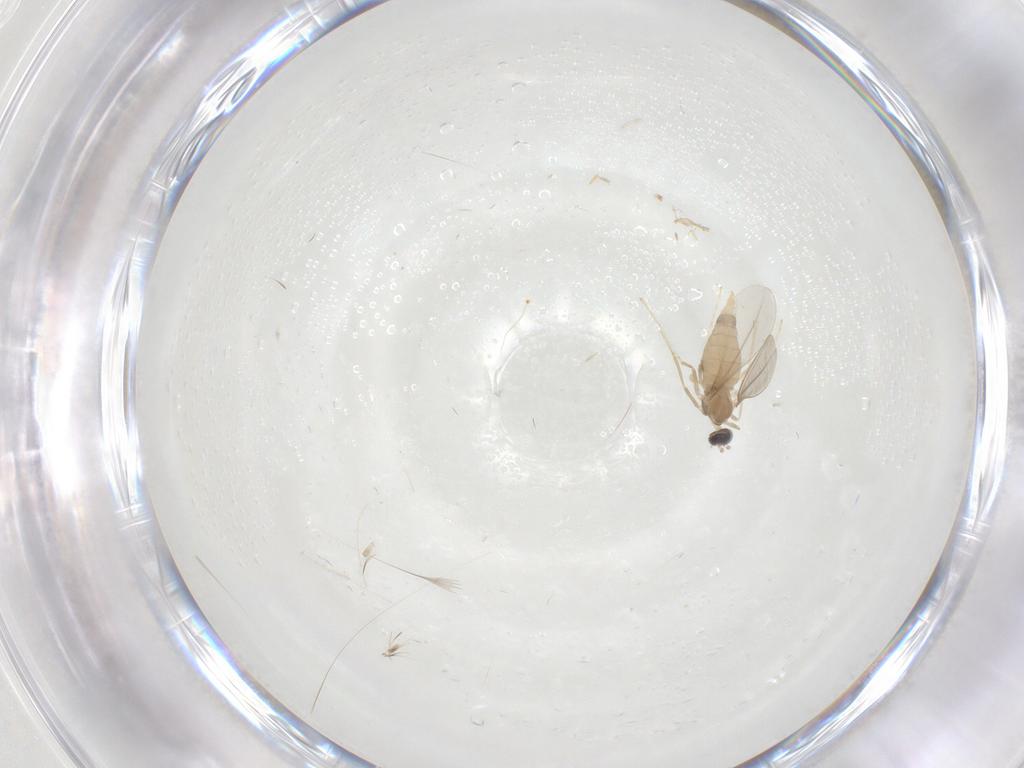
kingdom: Animalia
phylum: Arthropoda
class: Insecta
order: Diptera
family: Cecidomyiidae
